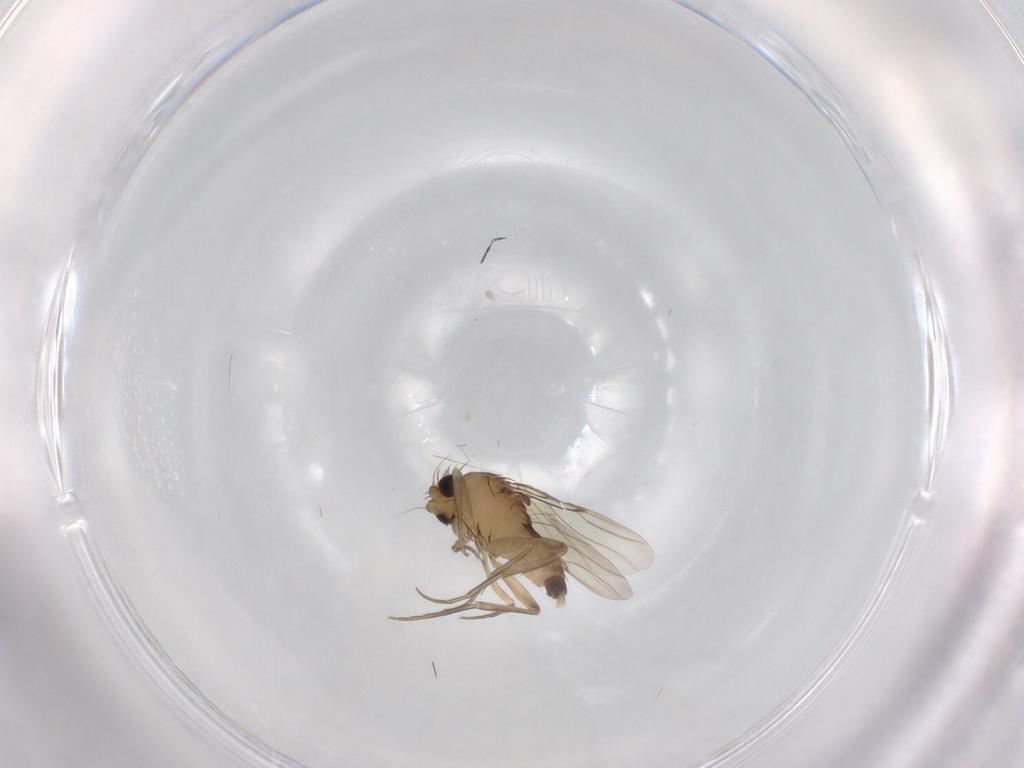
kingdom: Animalia
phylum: Arthropoda
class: Insecta
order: Diptera
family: Phoridae
